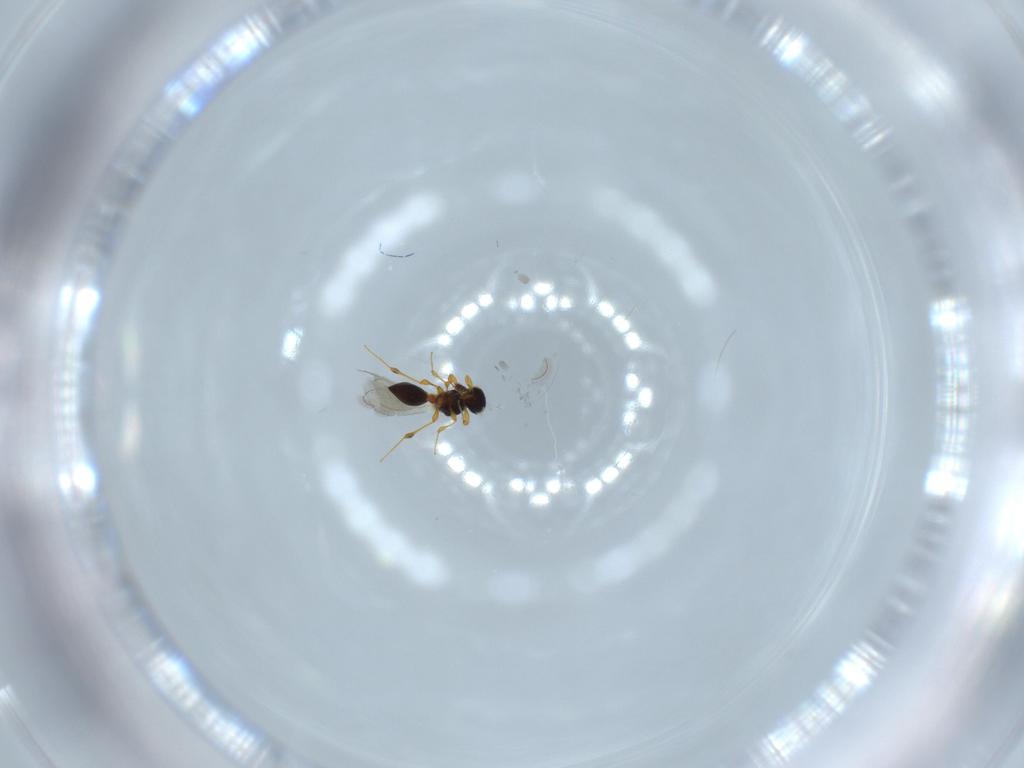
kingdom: Animalia
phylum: Arthropoda
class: Insecta
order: Hymenoptera
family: Platygastridae
